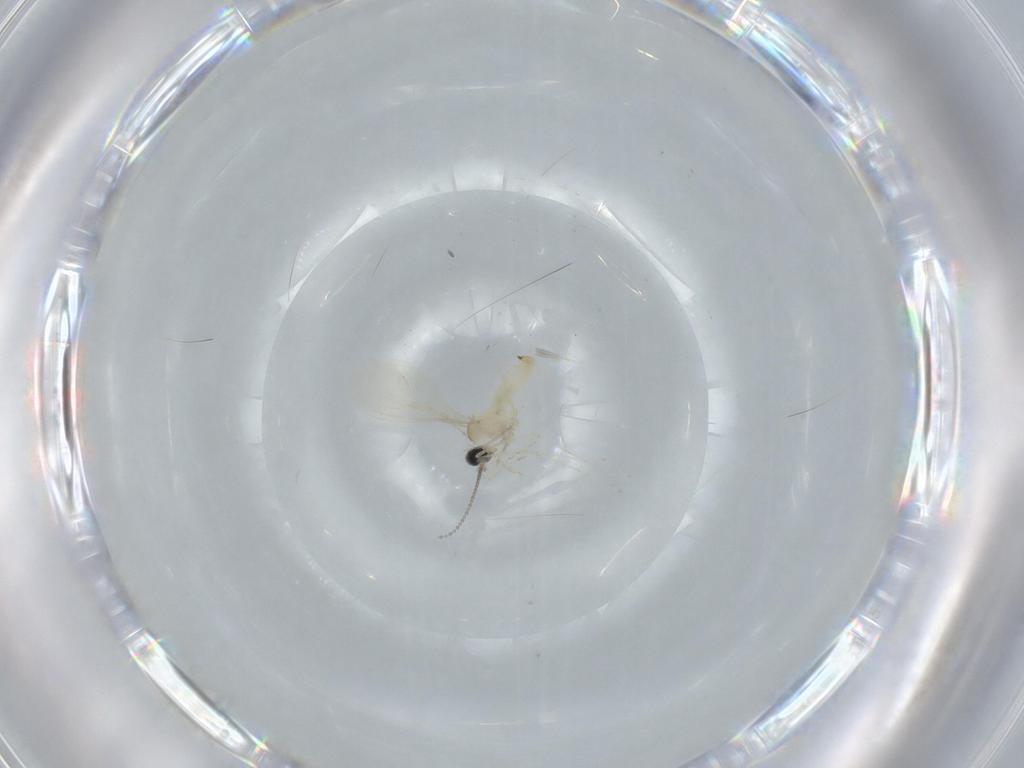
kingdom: Animalia
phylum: Arthropoda
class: Insecta
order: Diptera
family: Cecidomyiidae
